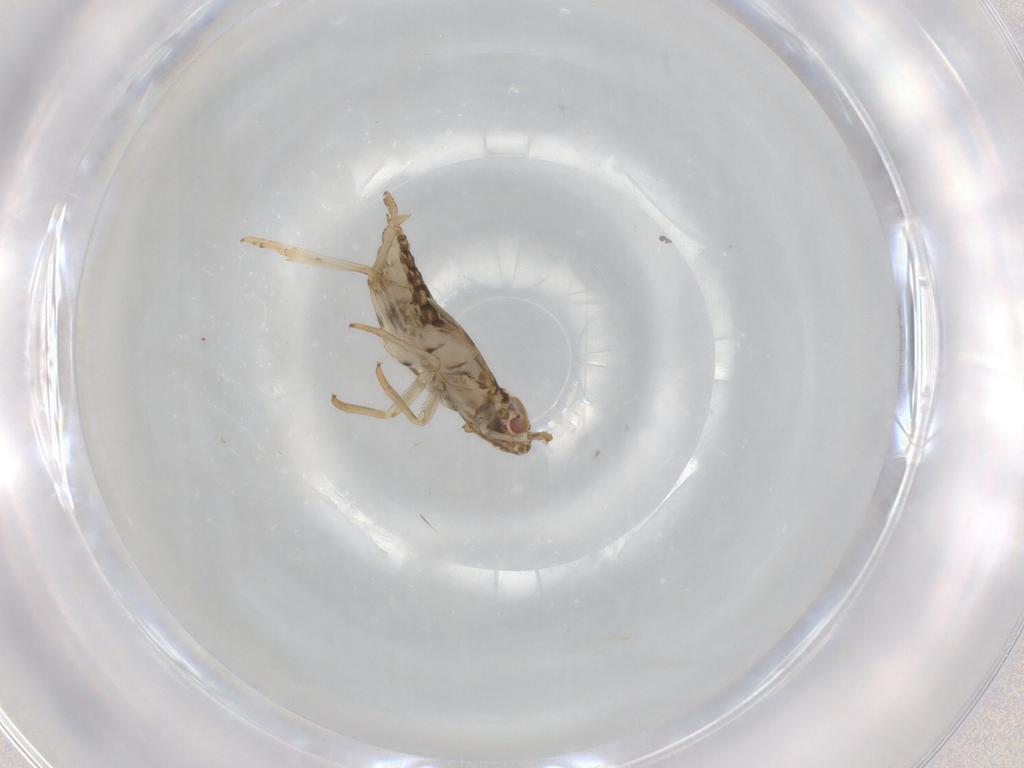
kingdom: Animalia
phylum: Arthropoda
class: Insecta
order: Hemiptera
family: Delphacidae
